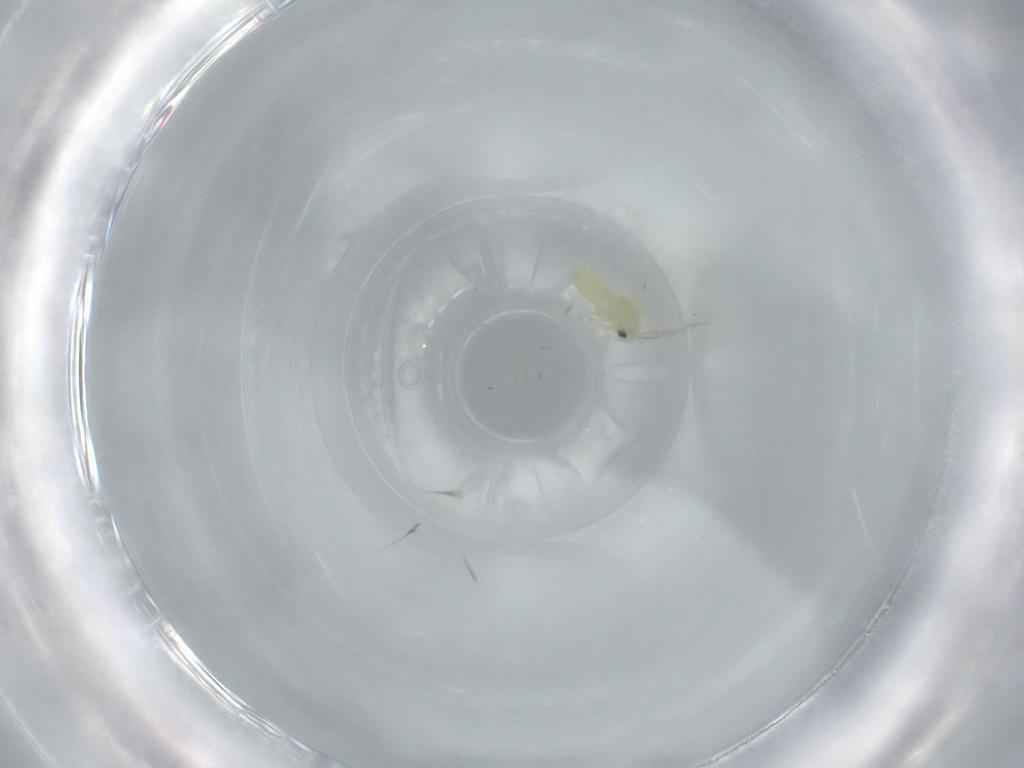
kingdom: Animalia
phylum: Arthropoda
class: Insecta
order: Hemiptera
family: Aleyrodidae
